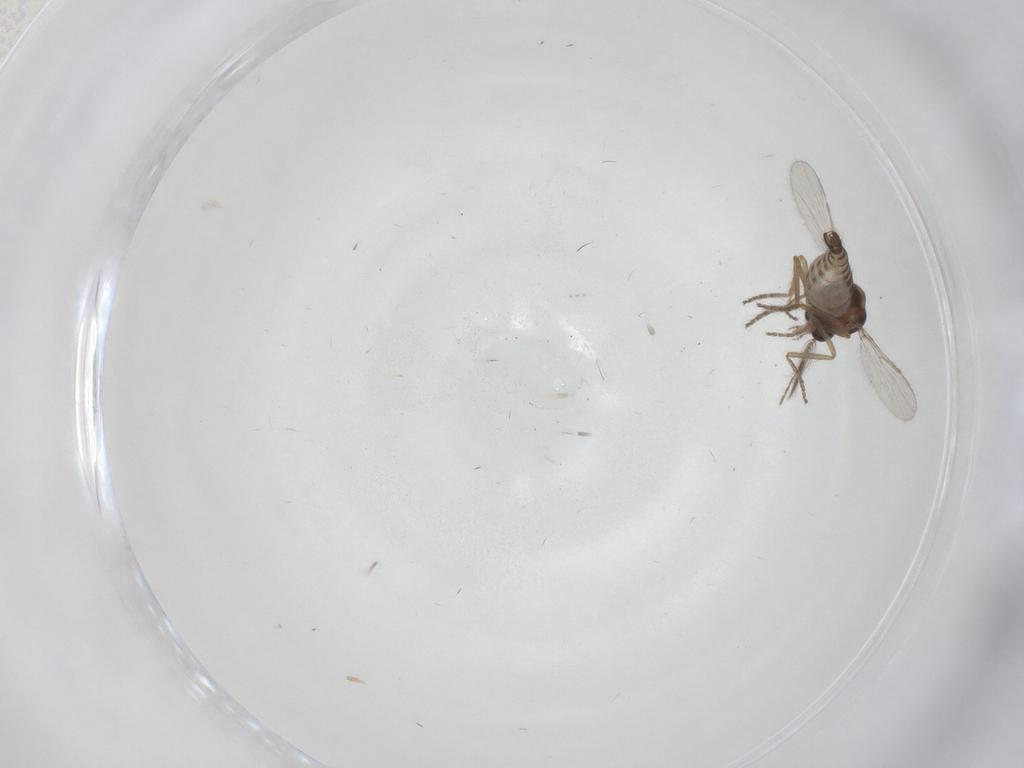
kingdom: Animalia
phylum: Arthropoda
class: Insecta
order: Diptera
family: Ceratopogonidae
